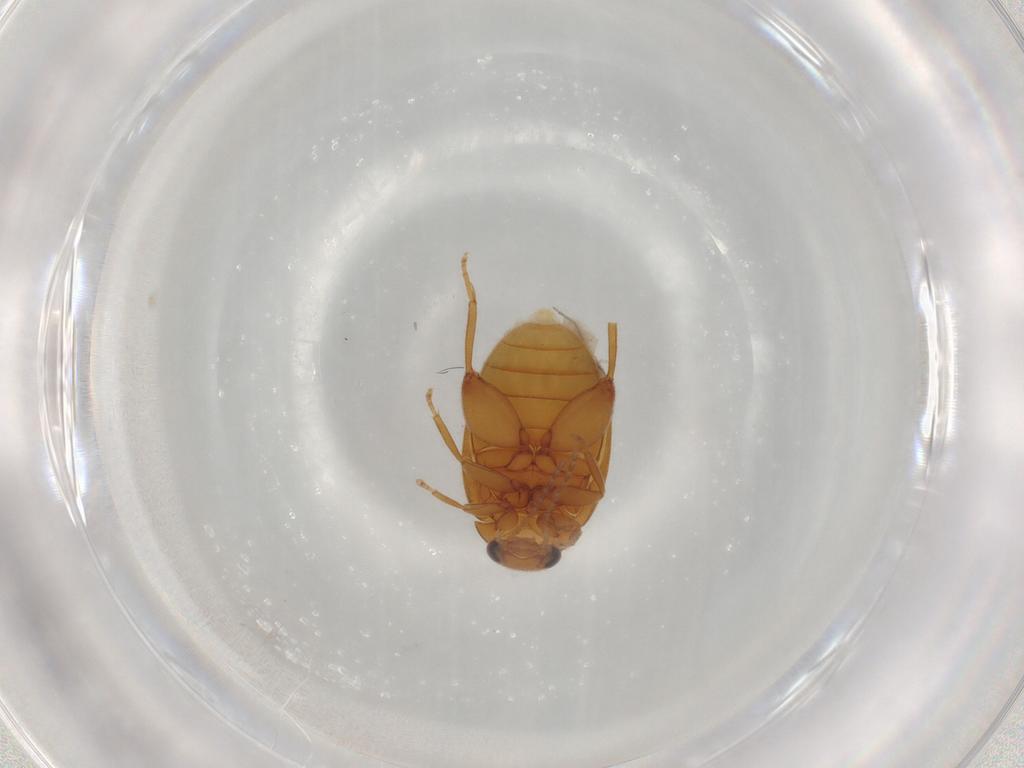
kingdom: Animalia
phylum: Arthropoda
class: Insecta
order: Coleoptera
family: Scirtidae
